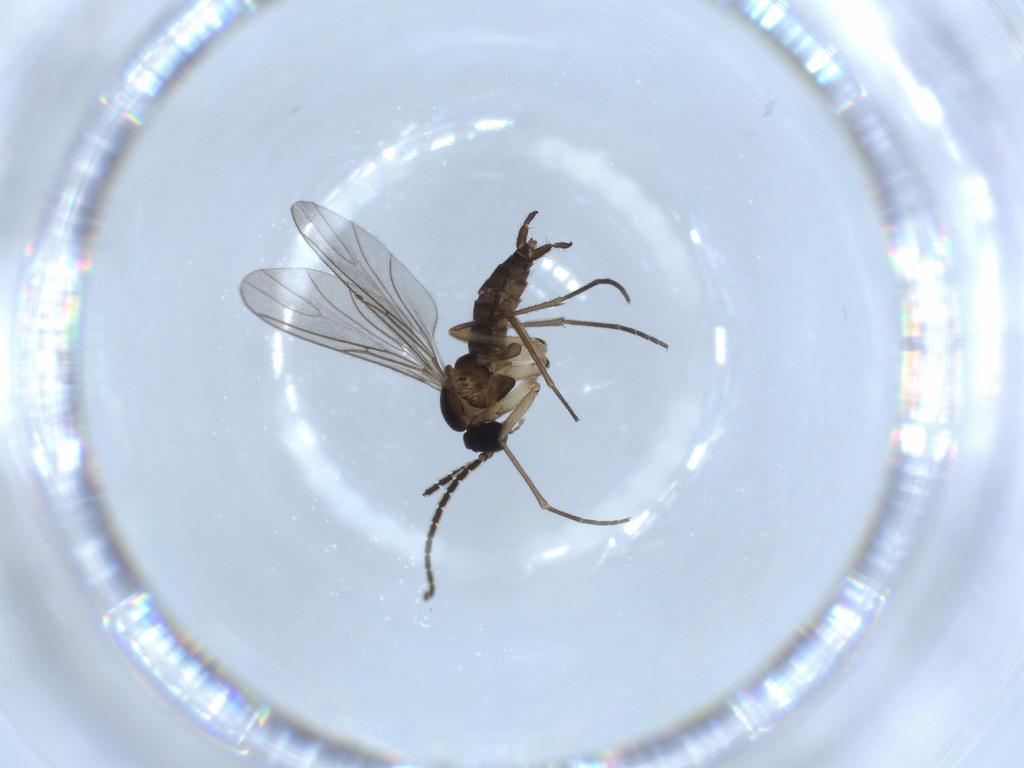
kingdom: Animalia
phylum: Arthropoda
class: Insecta
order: Diptera
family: Sciaridae
